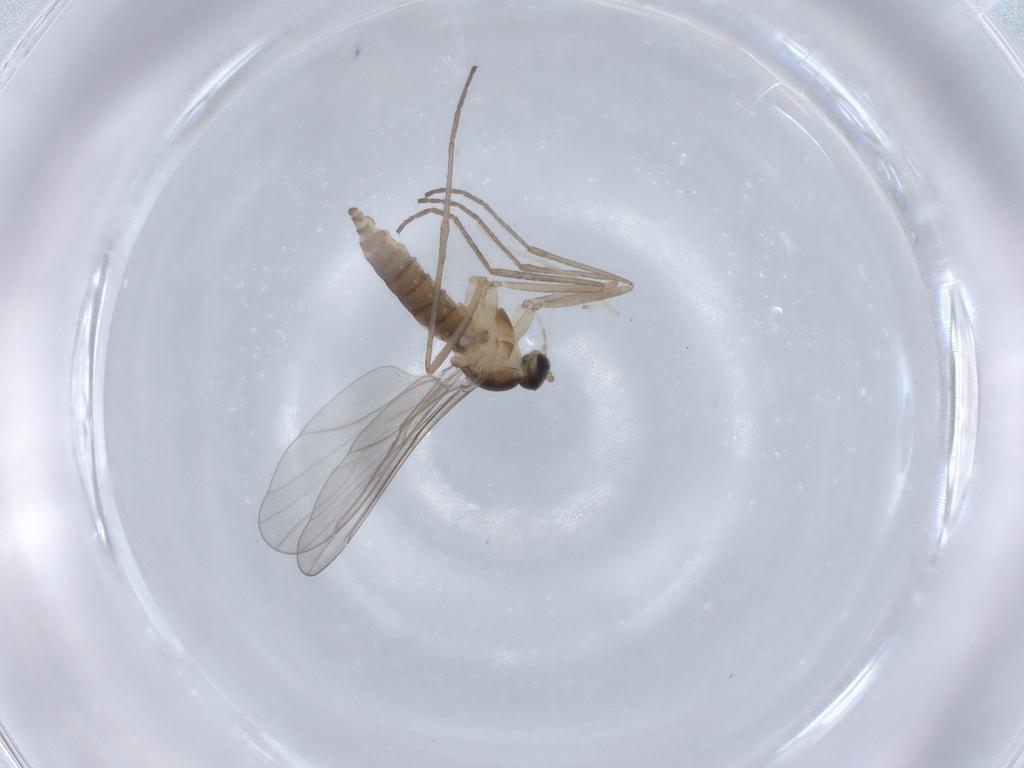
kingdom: Animalia
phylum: Arthropoda
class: Insecta
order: Diptera
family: Cecidomyiidae
